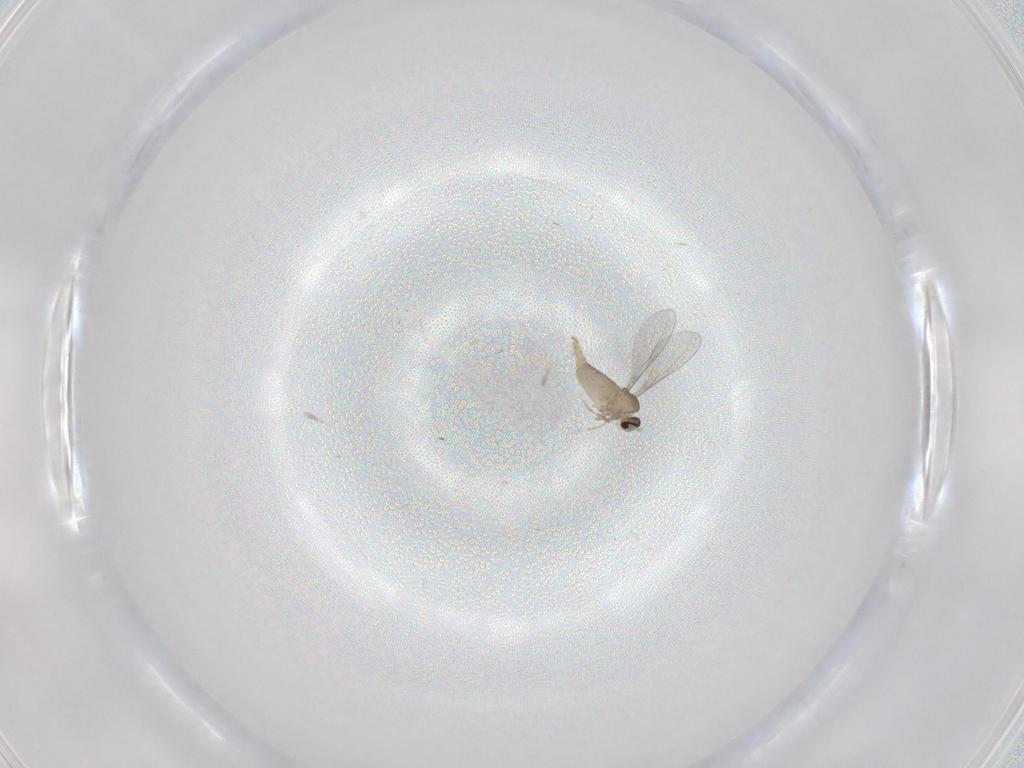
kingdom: Animalia
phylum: Arthropoda
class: Insecta
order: Diptera
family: Cecidomyiidae
